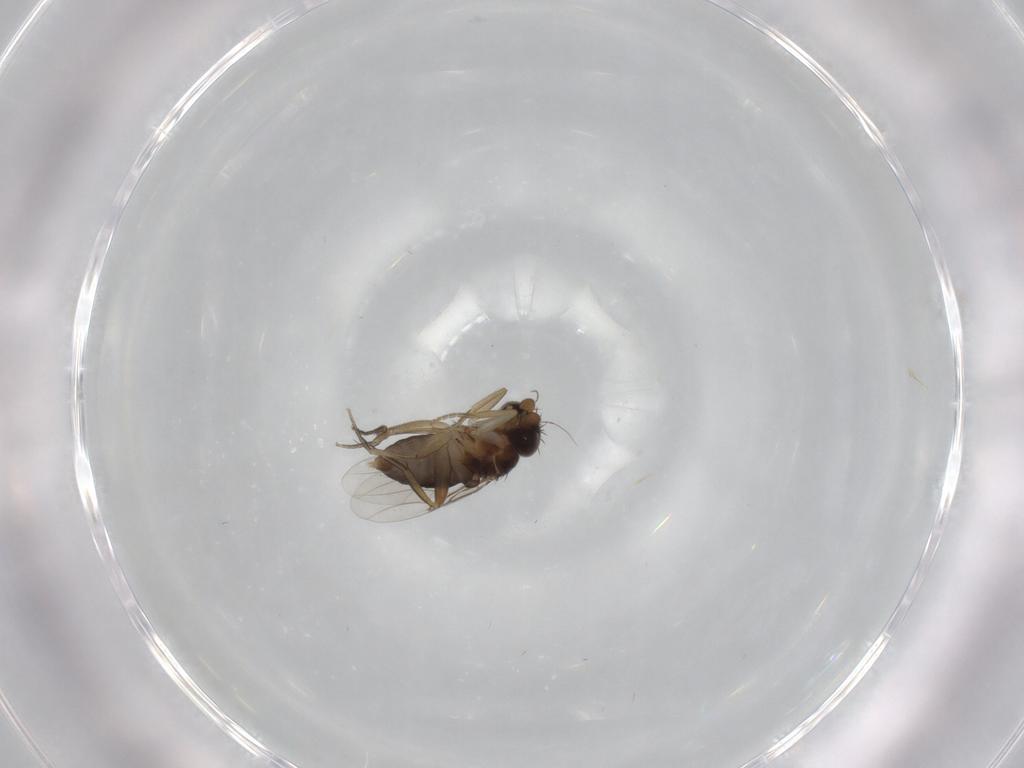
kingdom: Animalia
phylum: Arthropoda
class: Insecta
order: Diptera
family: Phoridae
